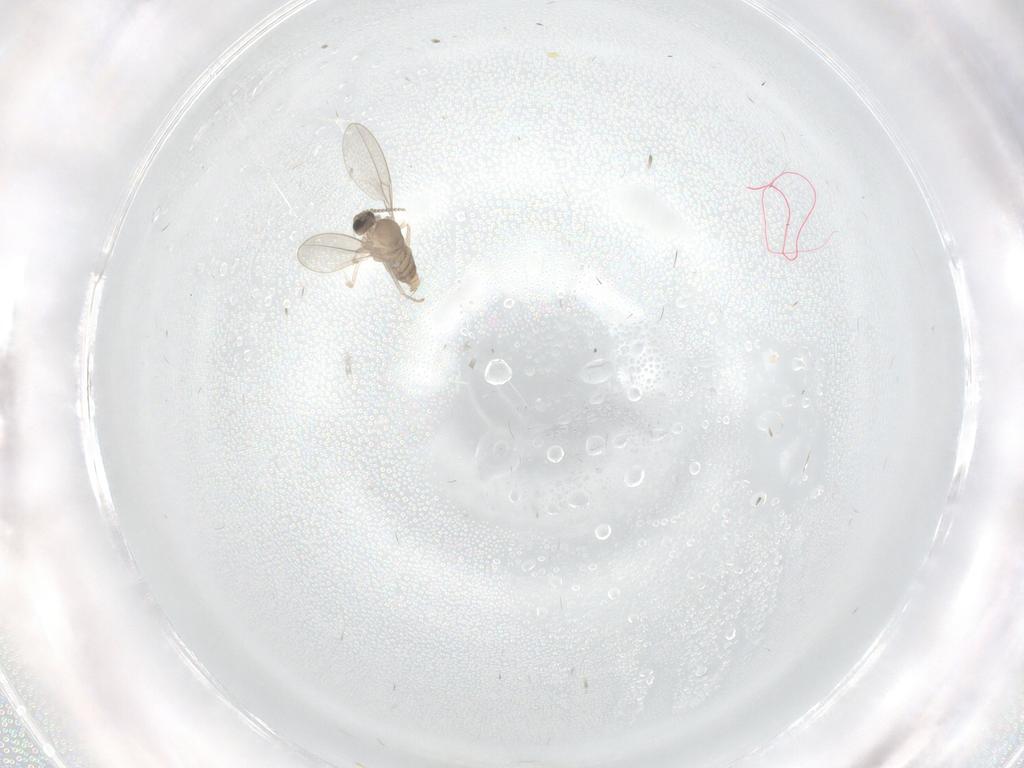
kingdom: Animalia
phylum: Arthropoda
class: Insecta
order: Diptera
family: Cecidomyiidae
